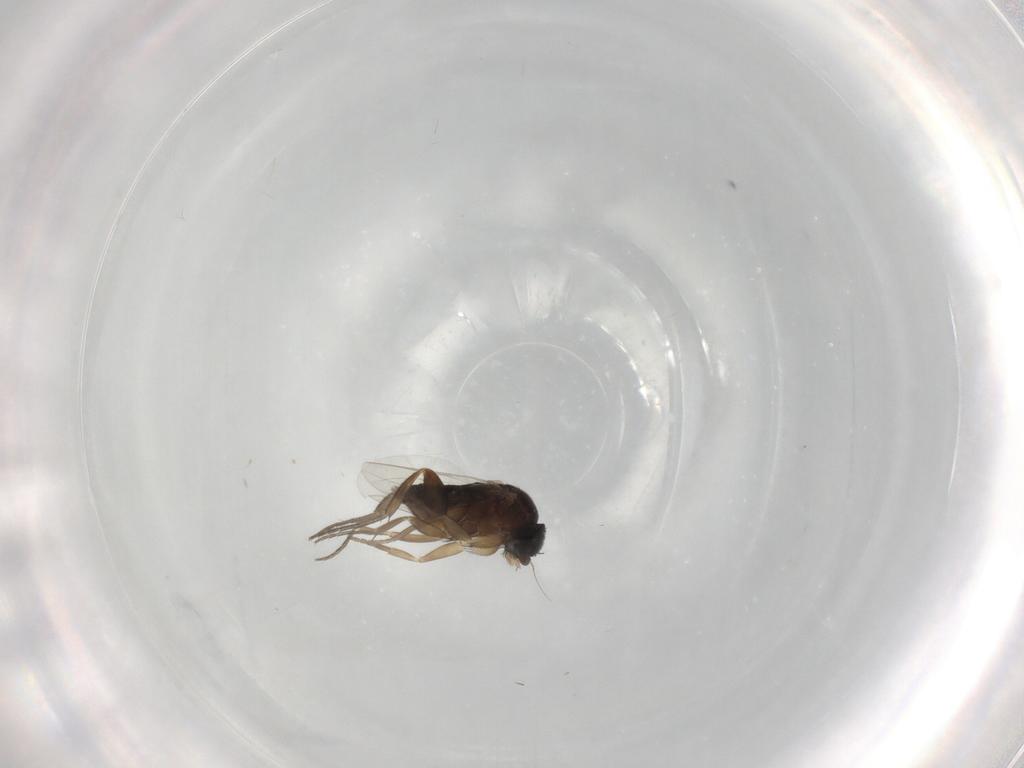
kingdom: Animalia
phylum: Arthropoda
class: Insecta
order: Diptera
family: Phoridae
